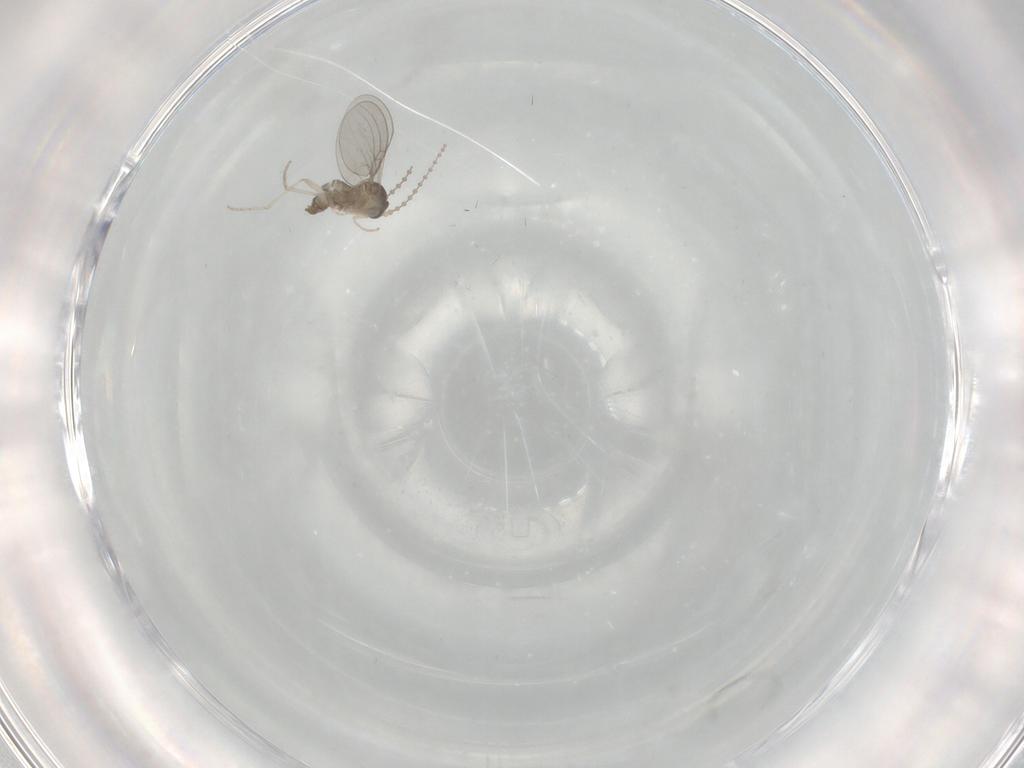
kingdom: Animalia
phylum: Arthropoda
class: Insecta
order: Diptera
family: Cecidomyiidae
